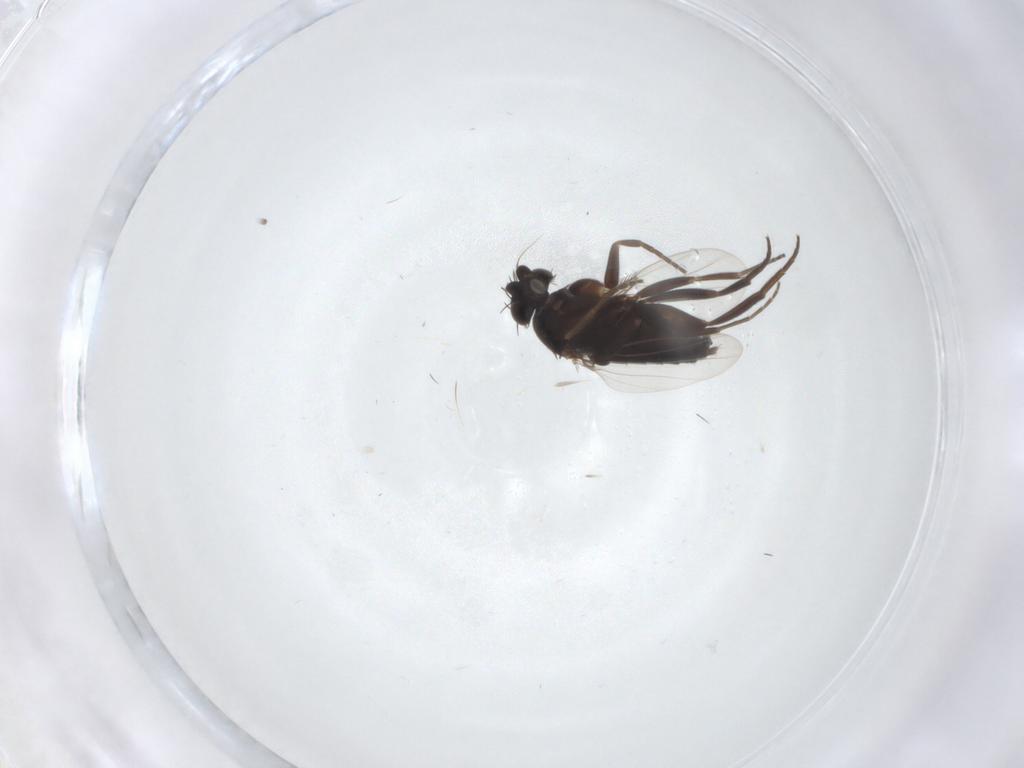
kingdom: Animalia
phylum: Arthropoda
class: Insecta
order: Diptera
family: Phoridae
